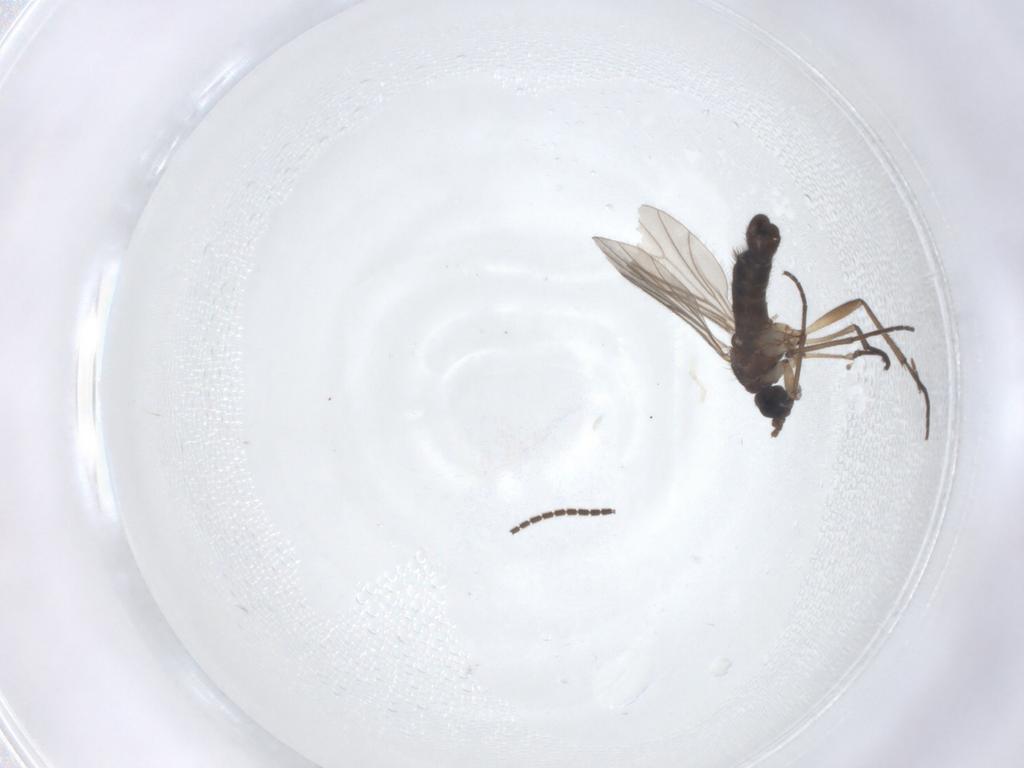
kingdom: Animalia
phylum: Arthropoda
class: Insecta
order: Diptera
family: Sciaridae
